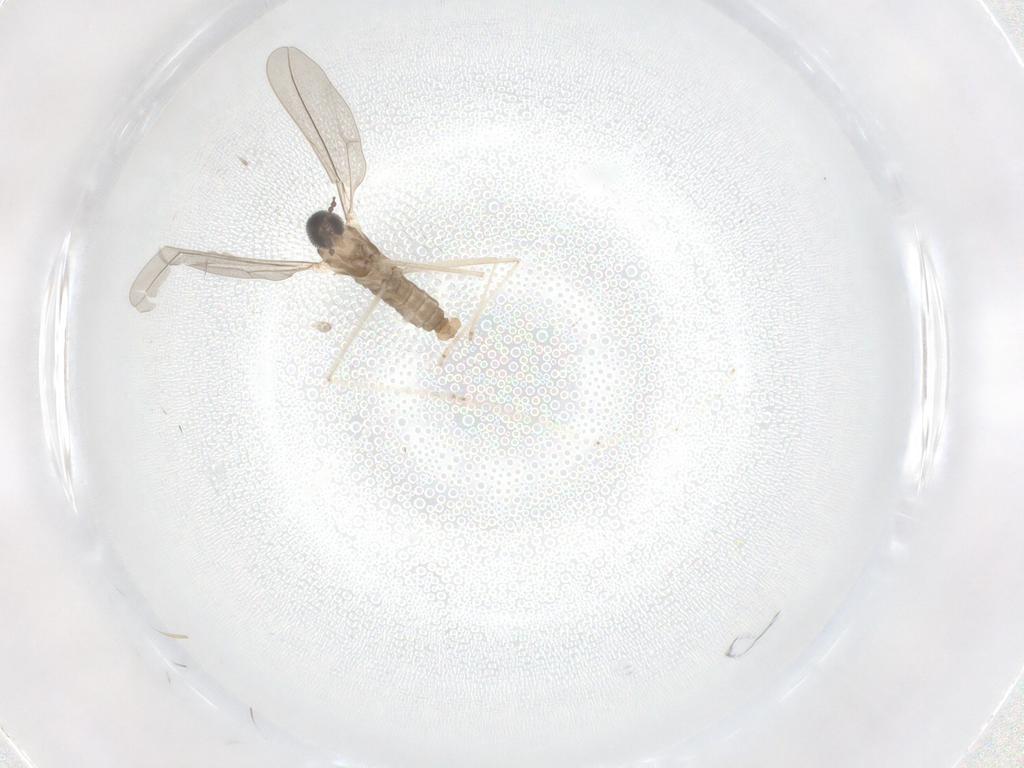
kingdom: Animalia
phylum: Arthropoda
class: Insecta
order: Diptera
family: Cecidomyiidae
